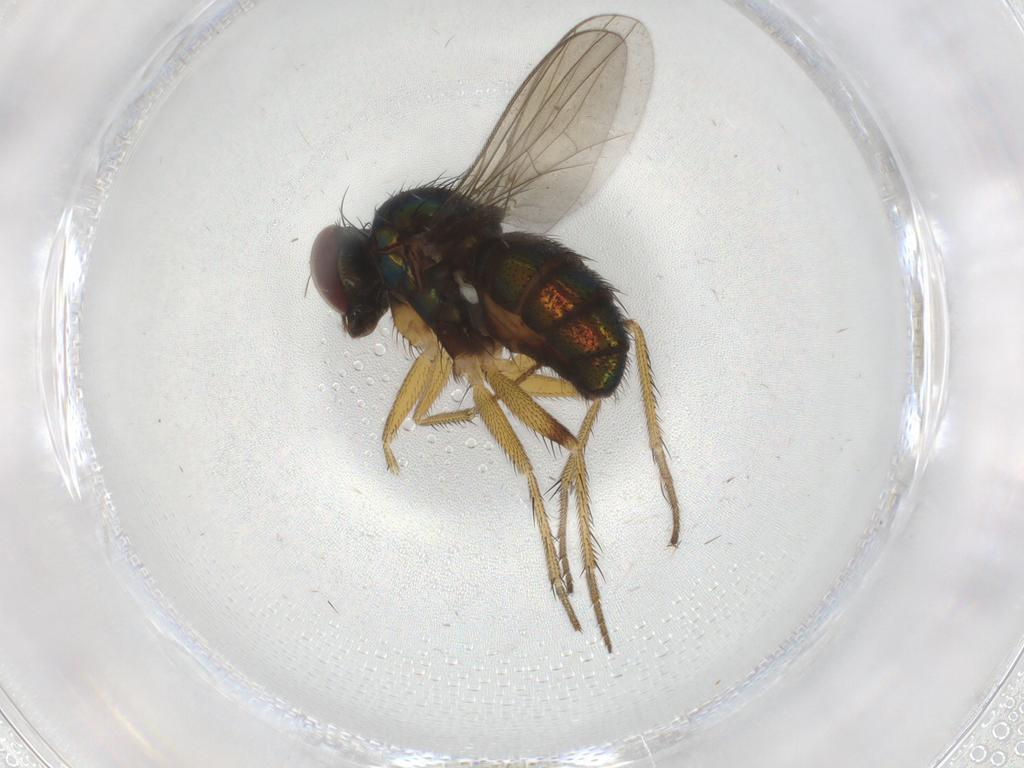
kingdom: Animalia
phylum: Arthropoda
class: Insecta
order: Diptera
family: Dolichopodidae
